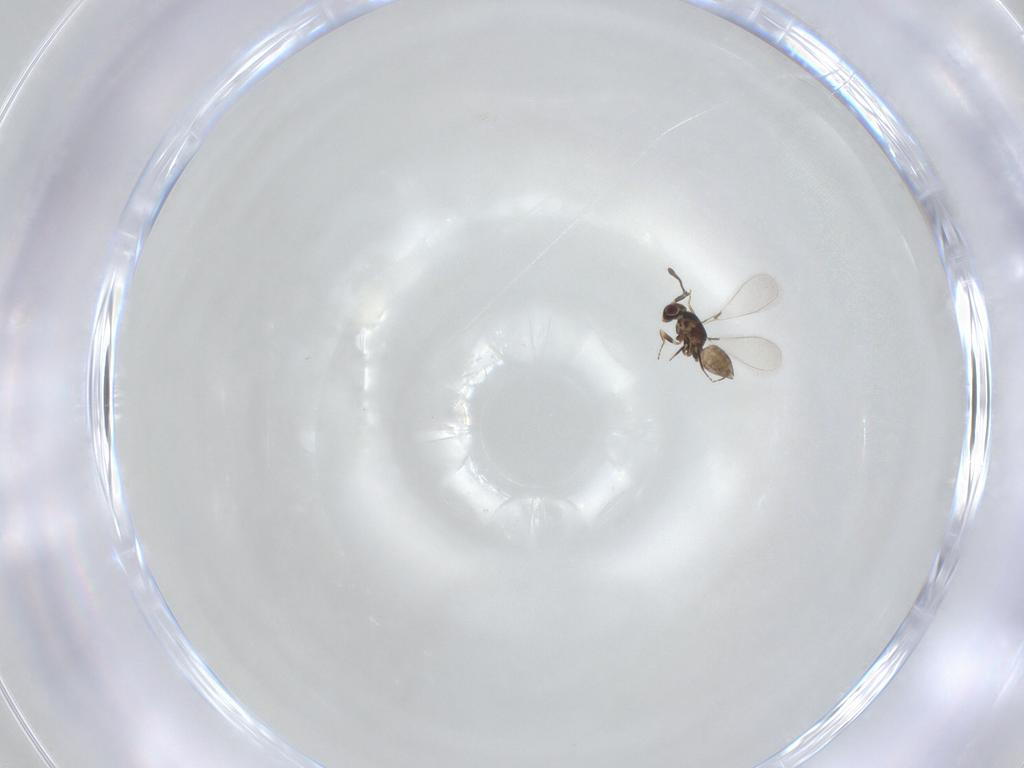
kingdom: Animalia
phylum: Arthropoda
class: Insecta
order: Hymenoptera
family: Mymaridae
